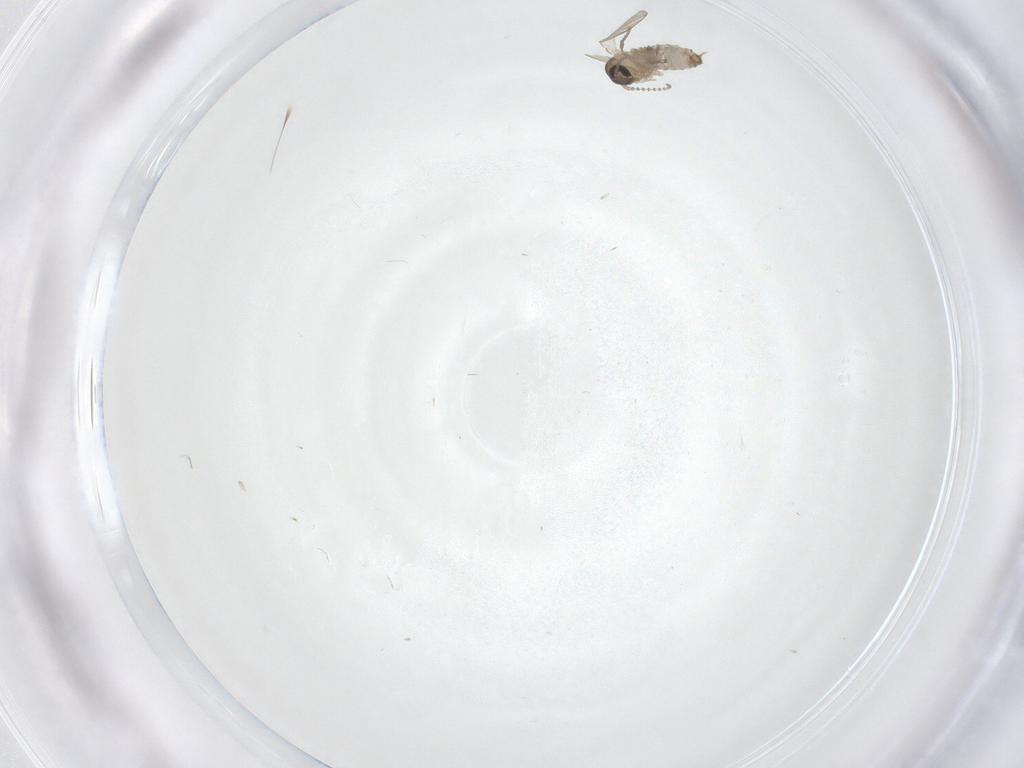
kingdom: Animalia
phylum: Arthropoda
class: Insecta
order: Diptera
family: Psychodidae
